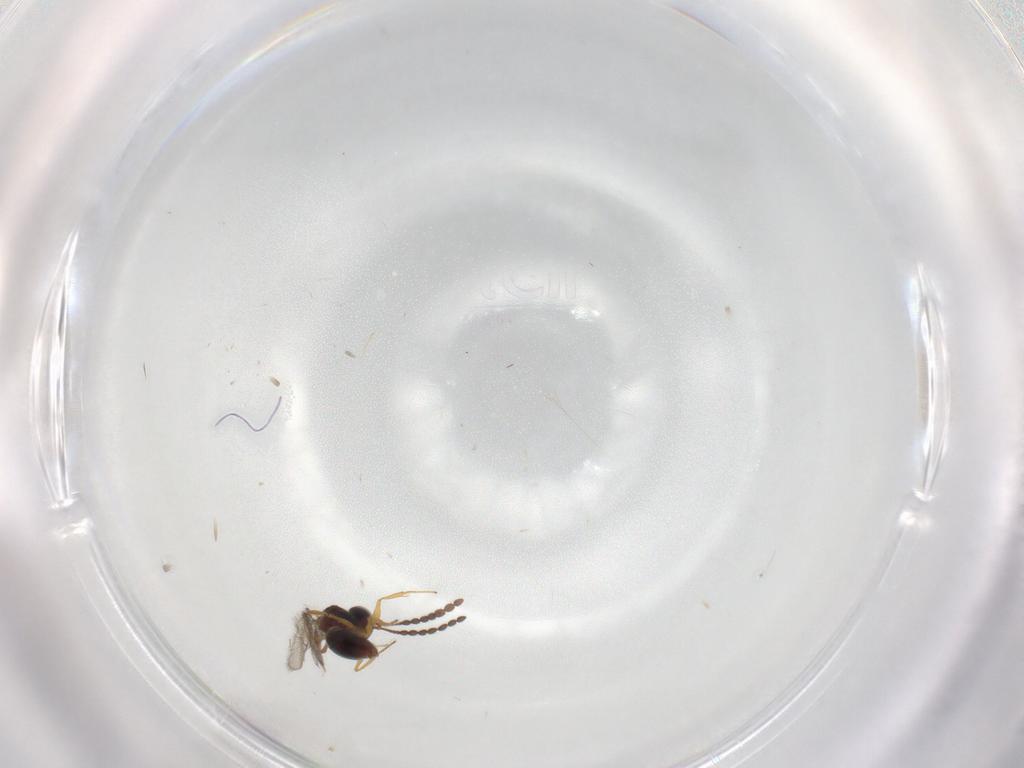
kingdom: Animalia
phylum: Arthropoda
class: Insecta
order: Hymenoptera
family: Figitidae
